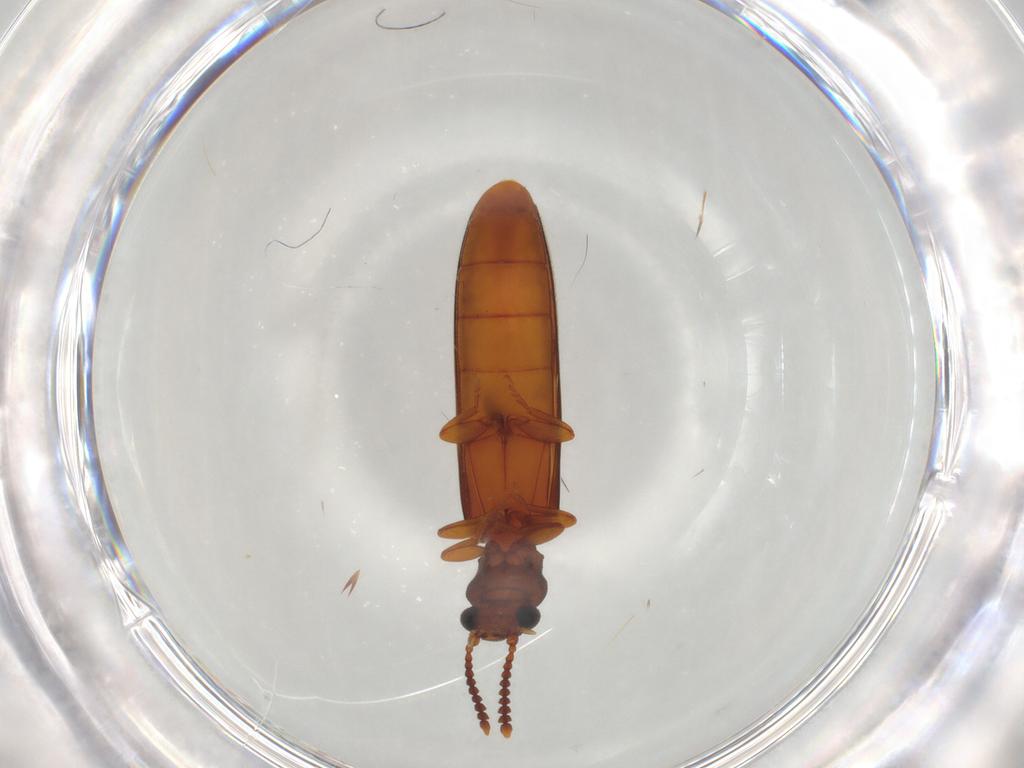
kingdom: Animalia
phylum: Arthropoda
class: Insecta
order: Coleoptera
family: Mycteridae
